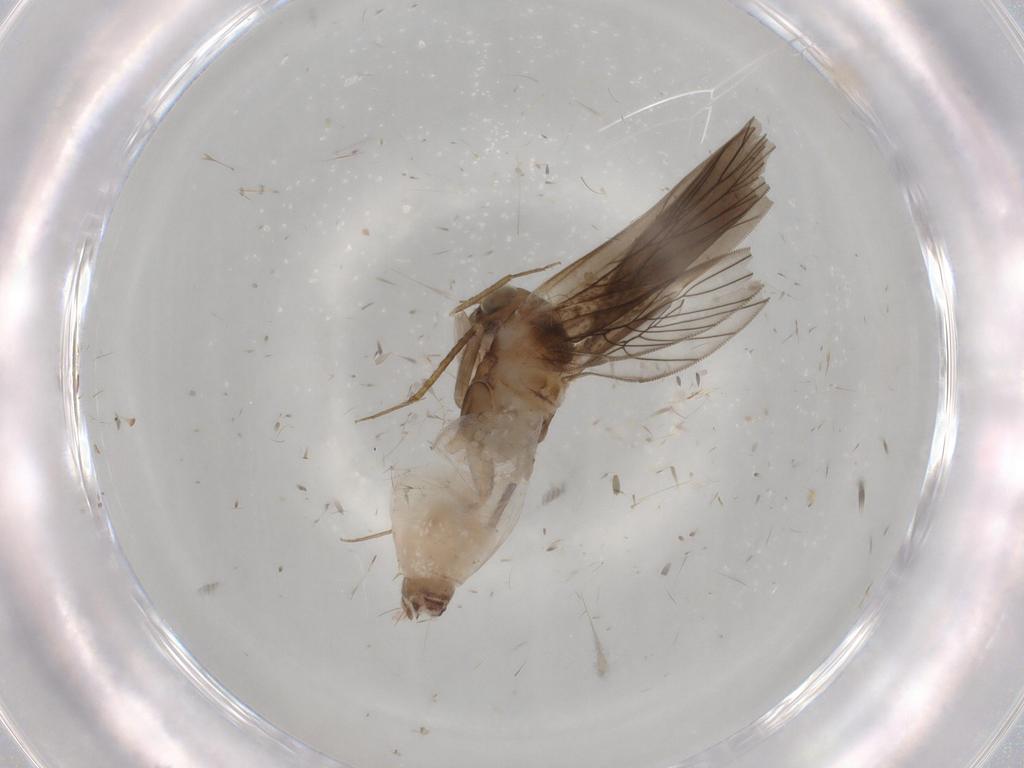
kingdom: Animalia
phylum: Arthropoda
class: Insecta
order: Psocodea
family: Lepidopsocidae
